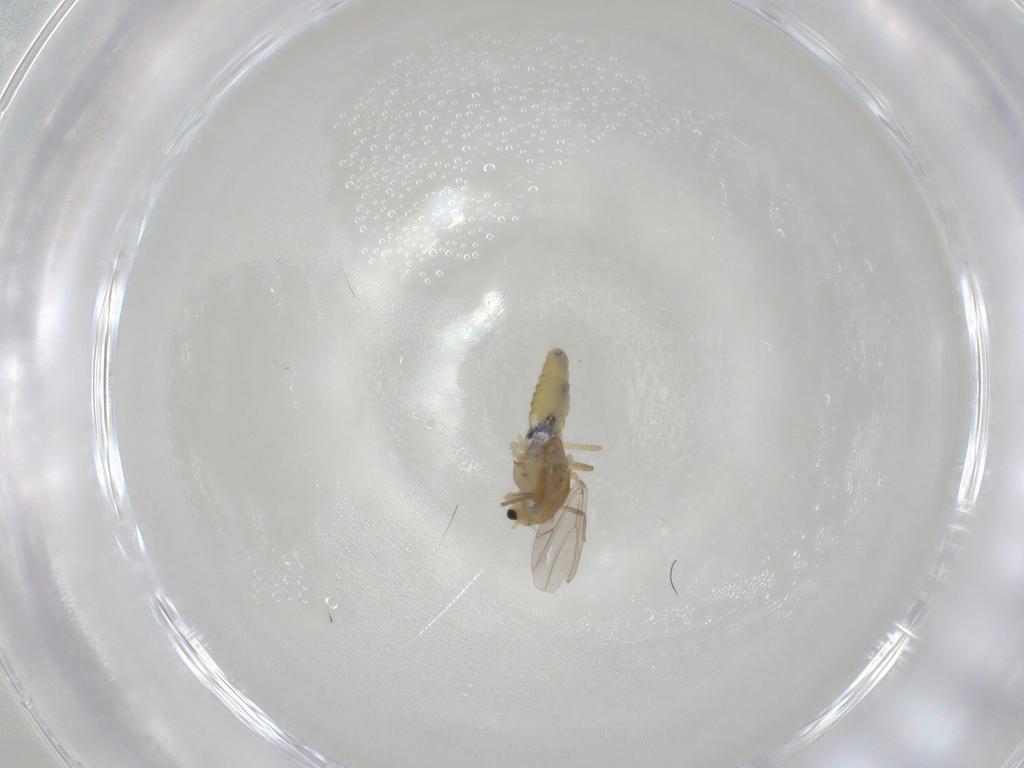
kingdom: Animalia
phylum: Arthropoda
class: Insecta
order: Diptera
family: Chironomidae
